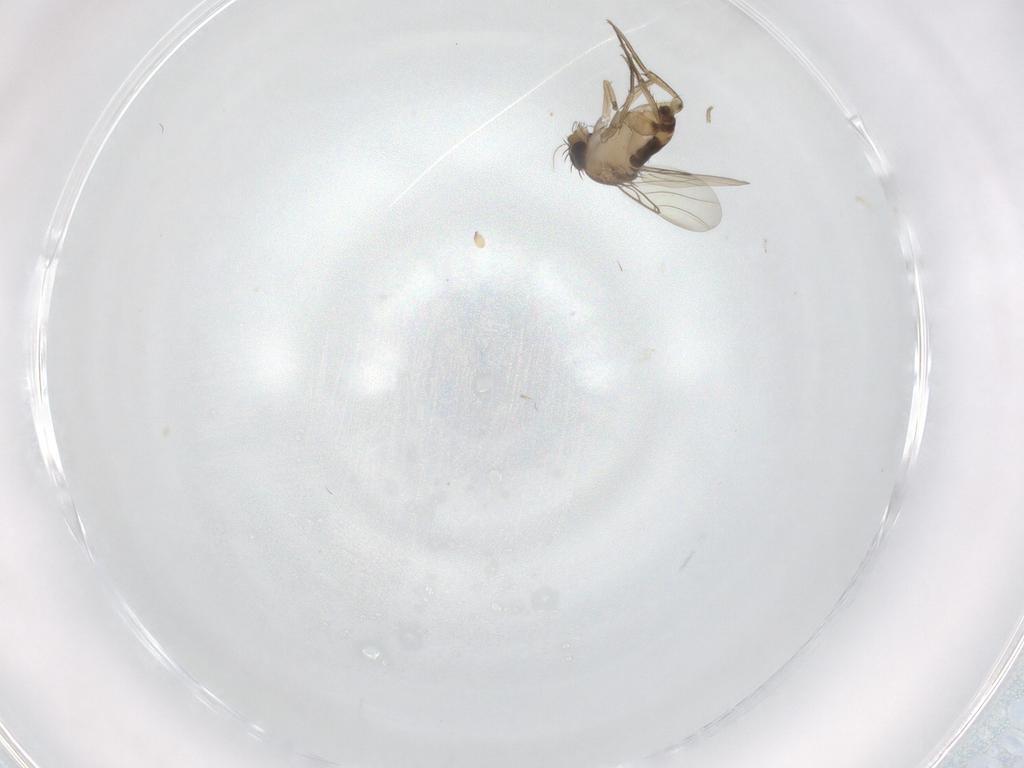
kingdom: Animalia
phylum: Arthropoda
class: Insecta
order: Diptera
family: Phoridae
